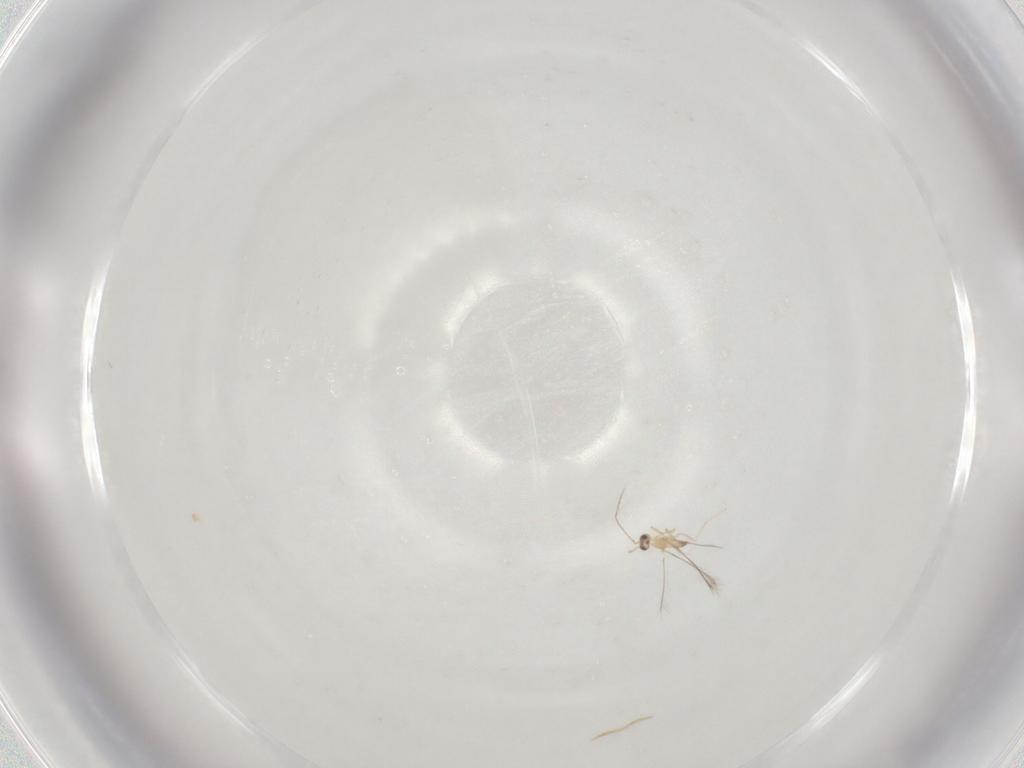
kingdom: Animalia
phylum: Arthropoda
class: Insecta
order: Hymenoptera
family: Mymaridae
